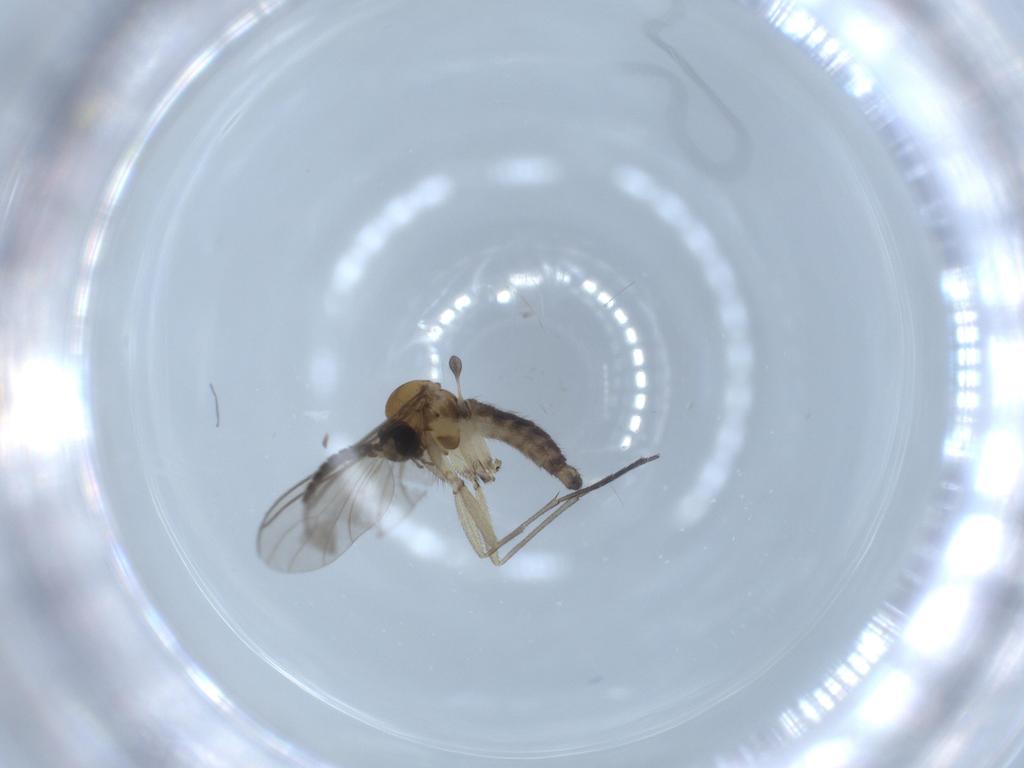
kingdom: Animalia
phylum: Arthropoda
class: Insecta
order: Diptera
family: Sciaridae
